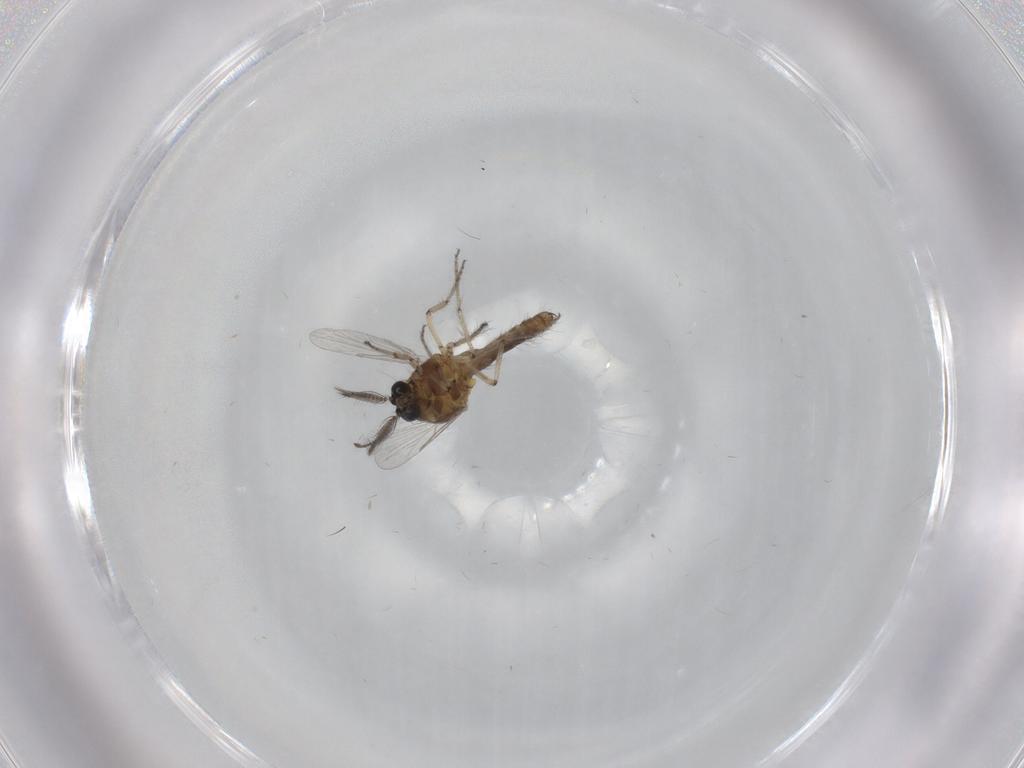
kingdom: Animalia
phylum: Arthropoda
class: Insecta
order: Diptera
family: Ceratopogonidae
